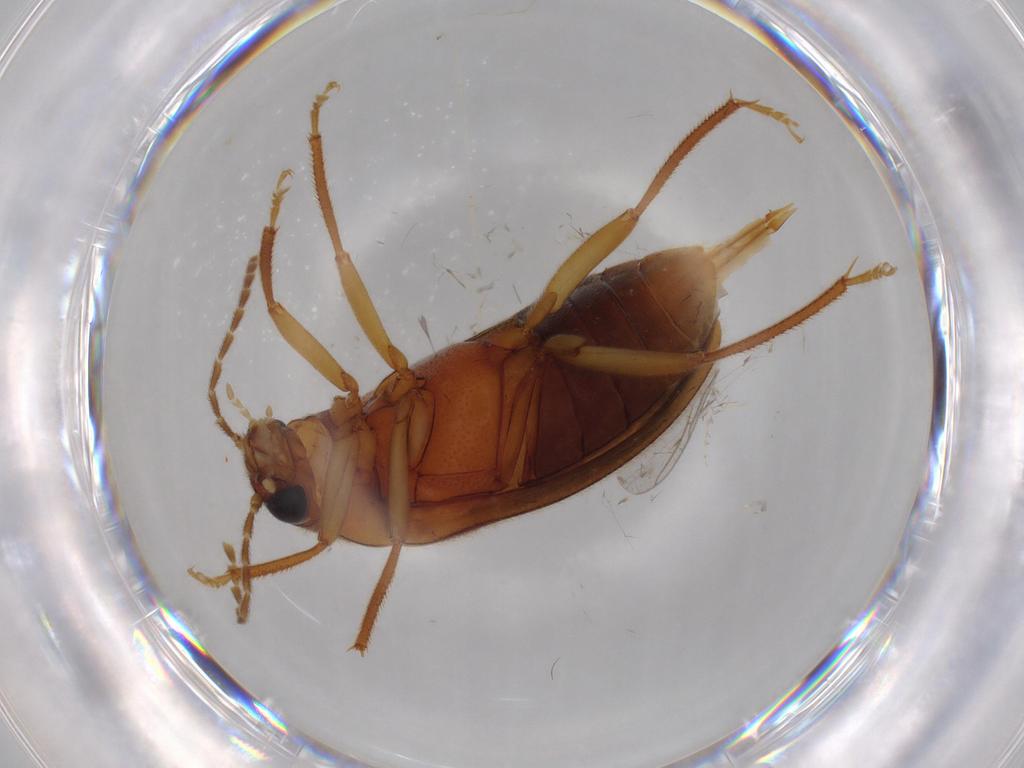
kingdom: Animalia
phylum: Arthropoda
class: Insecta
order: Coleoptera
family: Ptilodactylidae
